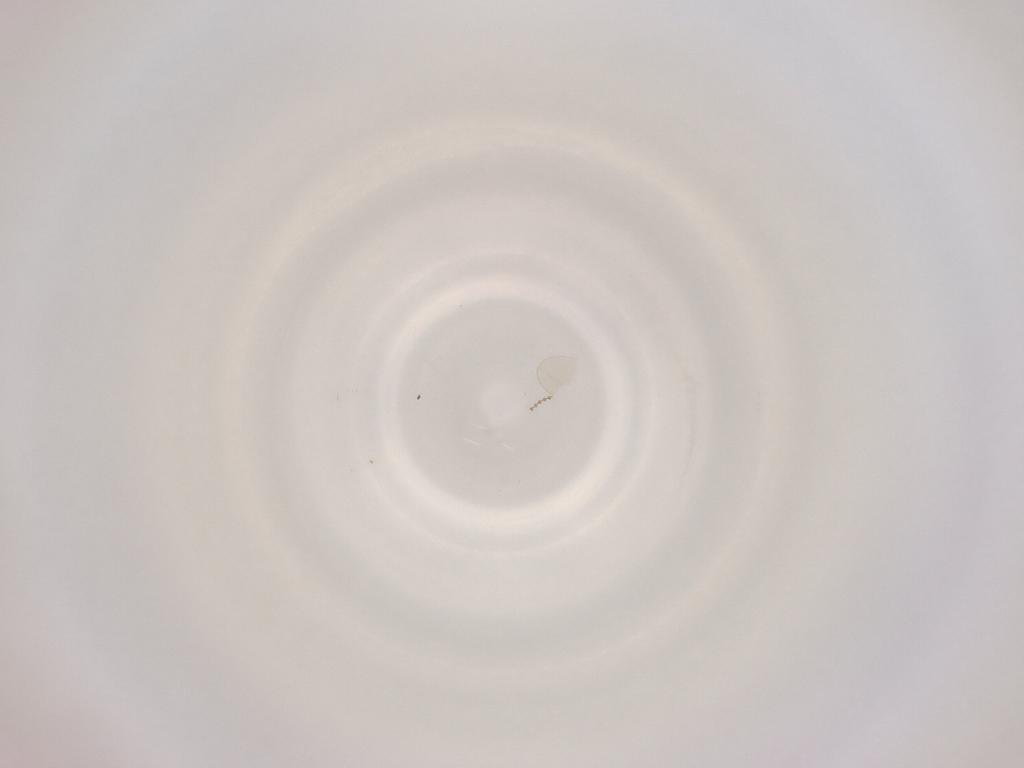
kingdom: Animalia
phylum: Arthropoda
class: Insecta
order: Diptera
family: Cecidomyiidae
